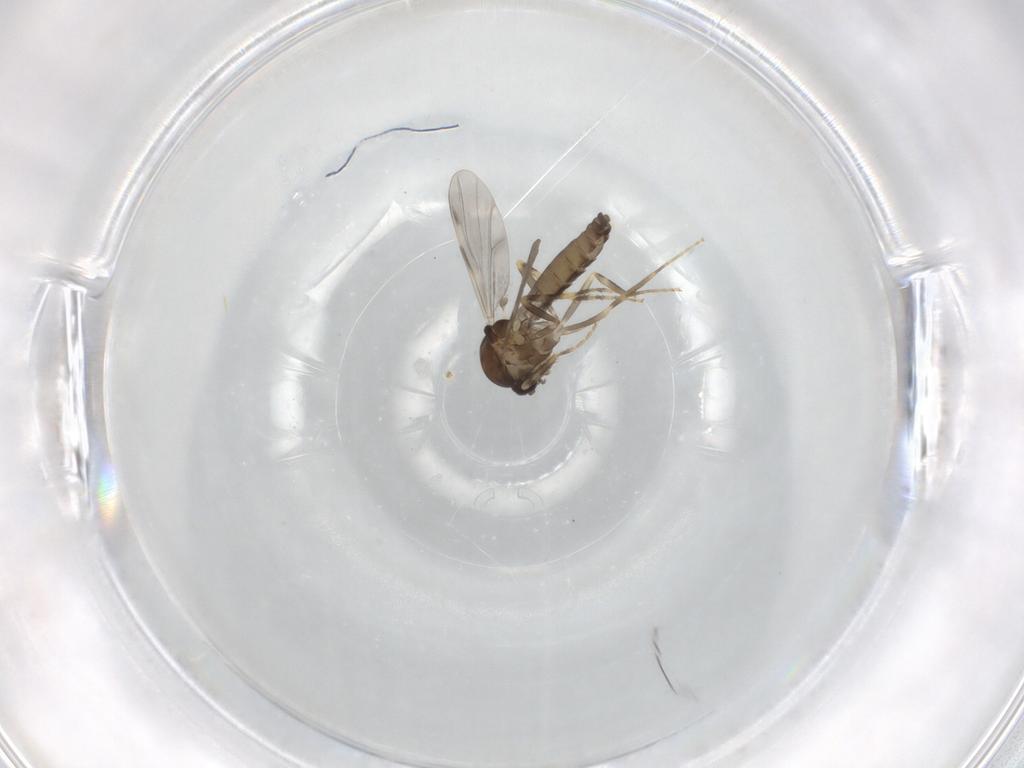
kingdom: Animalia
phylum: Arthropoda
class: Insecta
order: Diptera
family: Ceratopogonidae
